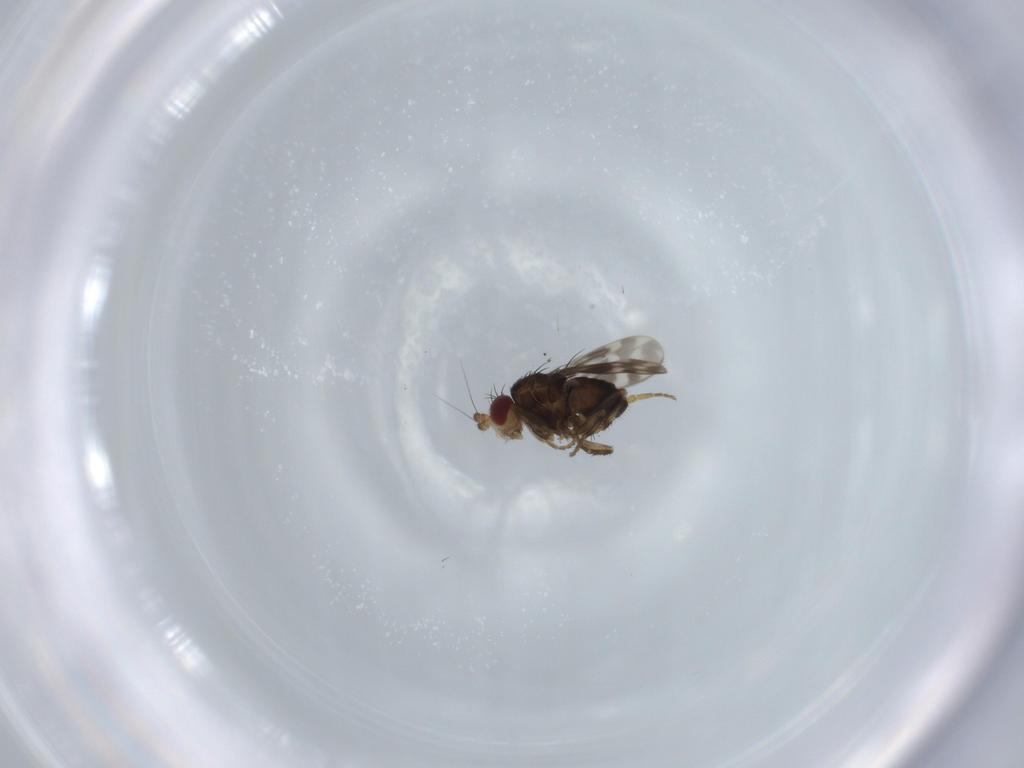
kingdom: Animalia
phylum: Arthropoda
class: Insecta
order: Diptera
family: Sphaeroceridae
